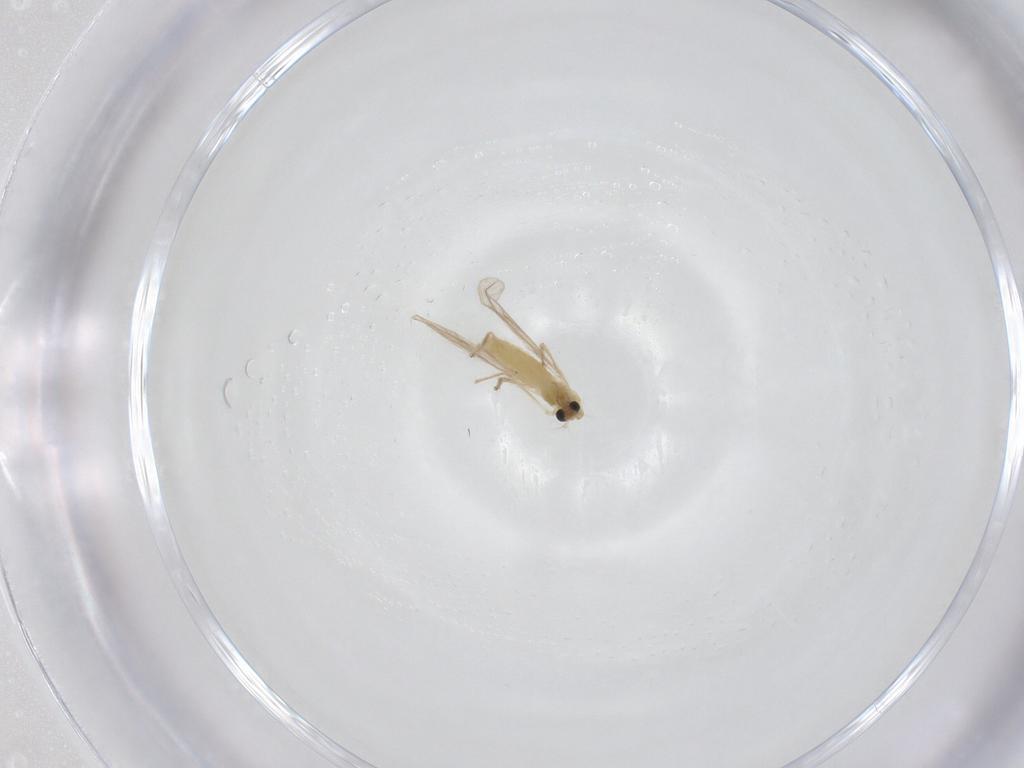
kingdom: Animalia
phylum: Arthropoda
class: Insecta
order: Diptera
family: Chironomidae
